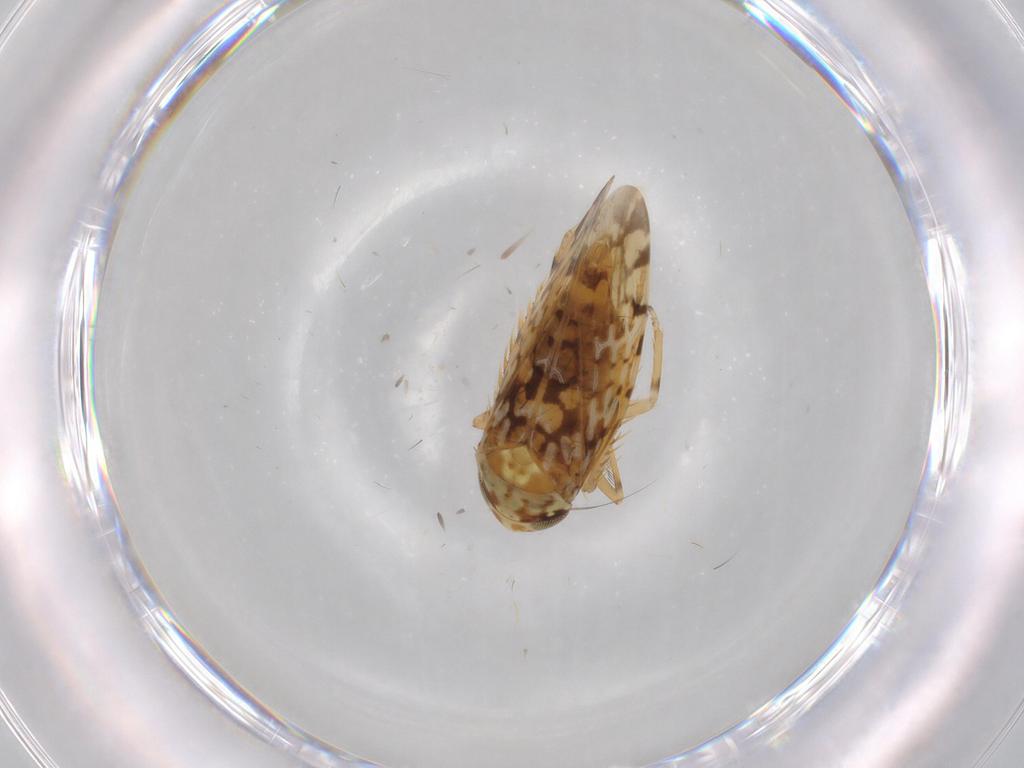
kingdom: Animalia
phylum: Arthropoda
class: Insecta
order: Hemiptera
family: Cicadellidae
